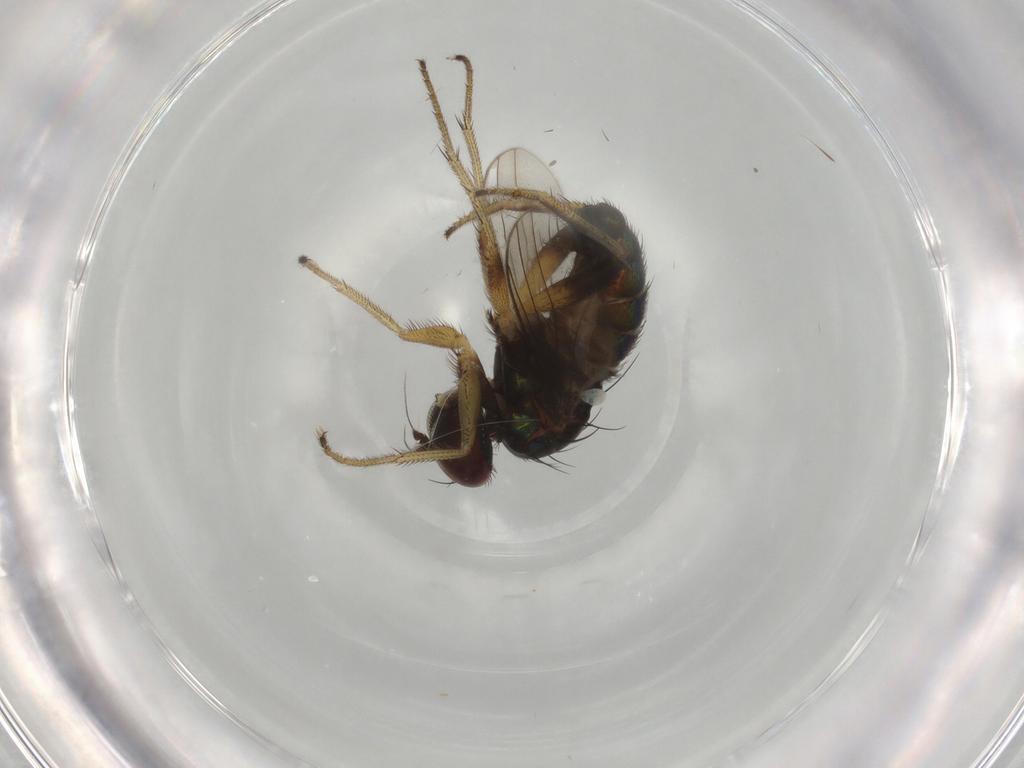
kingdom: Animalia
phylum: Arthropoda
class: Insecta
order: Diptera
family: Dolichopodidae
